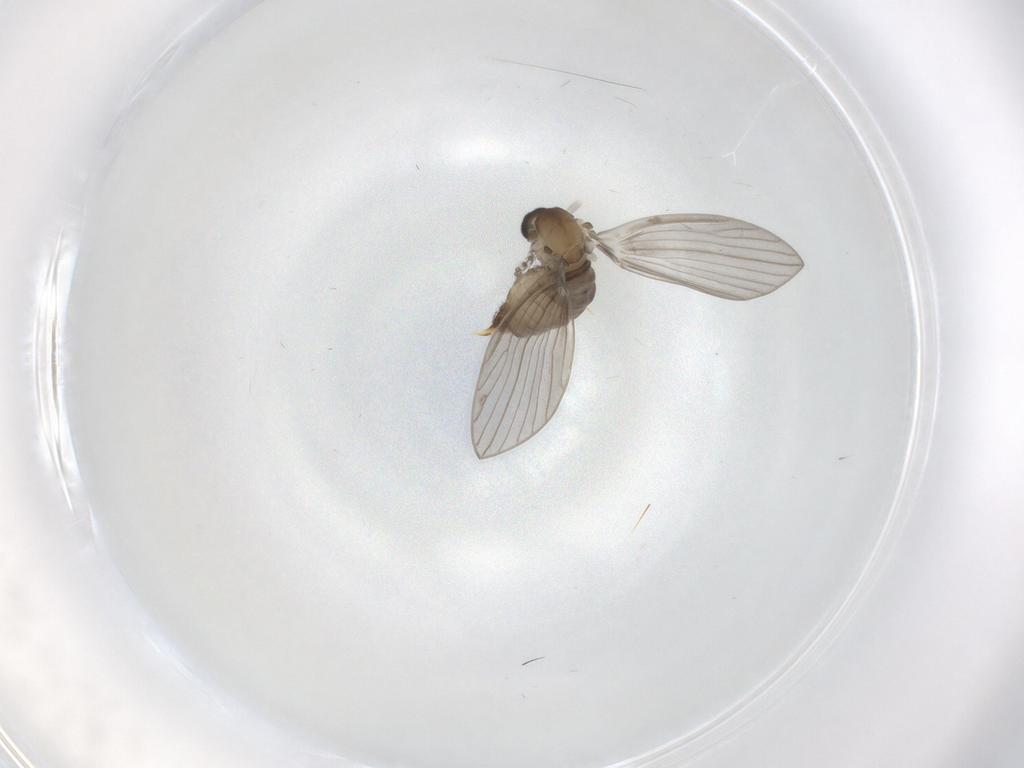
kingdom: Animalia
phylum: Arthropoda
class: Insecta
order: Diptera
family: Psychodidae
